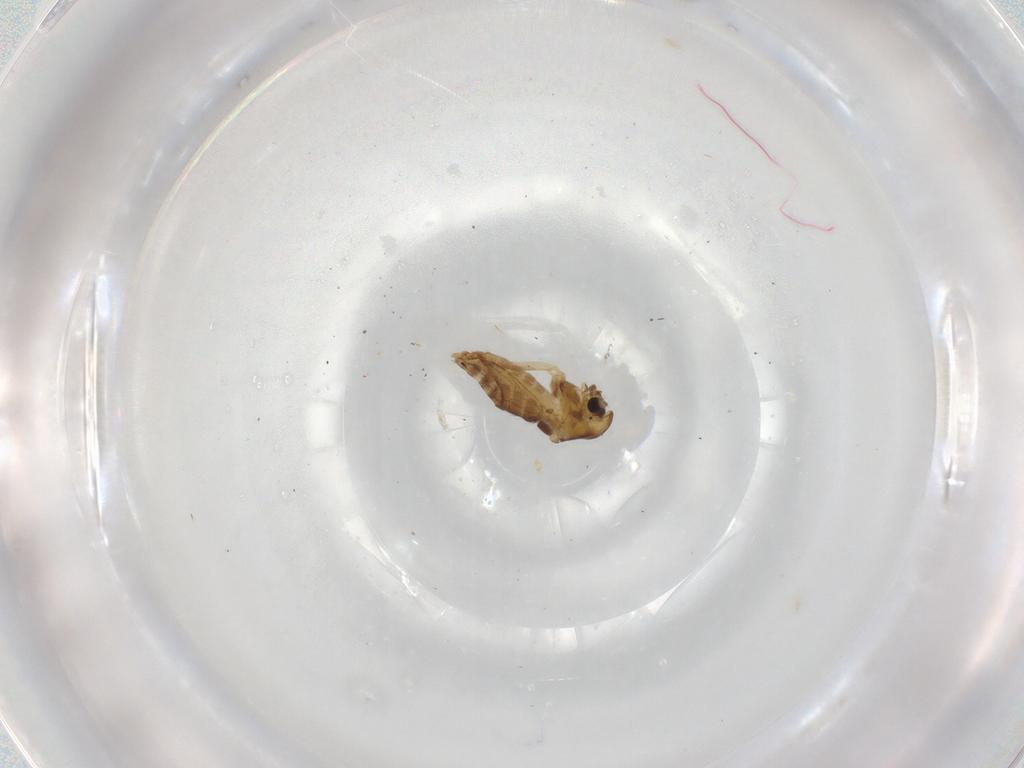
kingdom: Animalia
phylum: Arthropoda
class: Insecta
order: Diptera
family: Chironomidae
